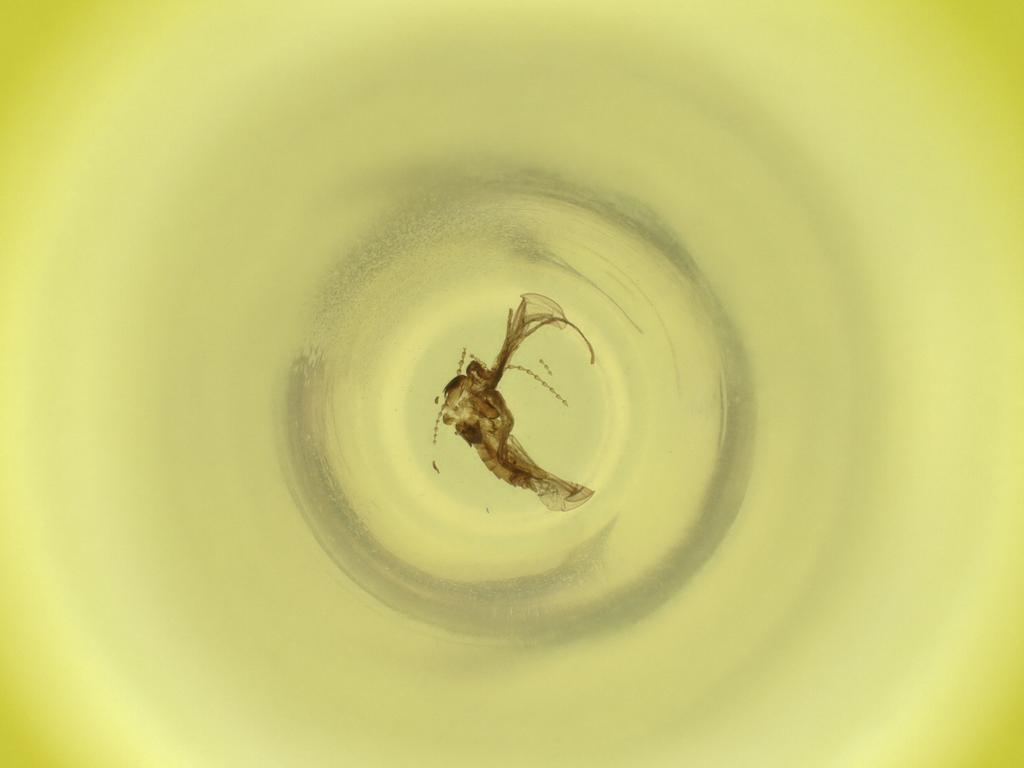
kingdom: Animalia
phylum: Arthropoda
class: Insecta
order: Diptera
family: Cecidomyiidae
